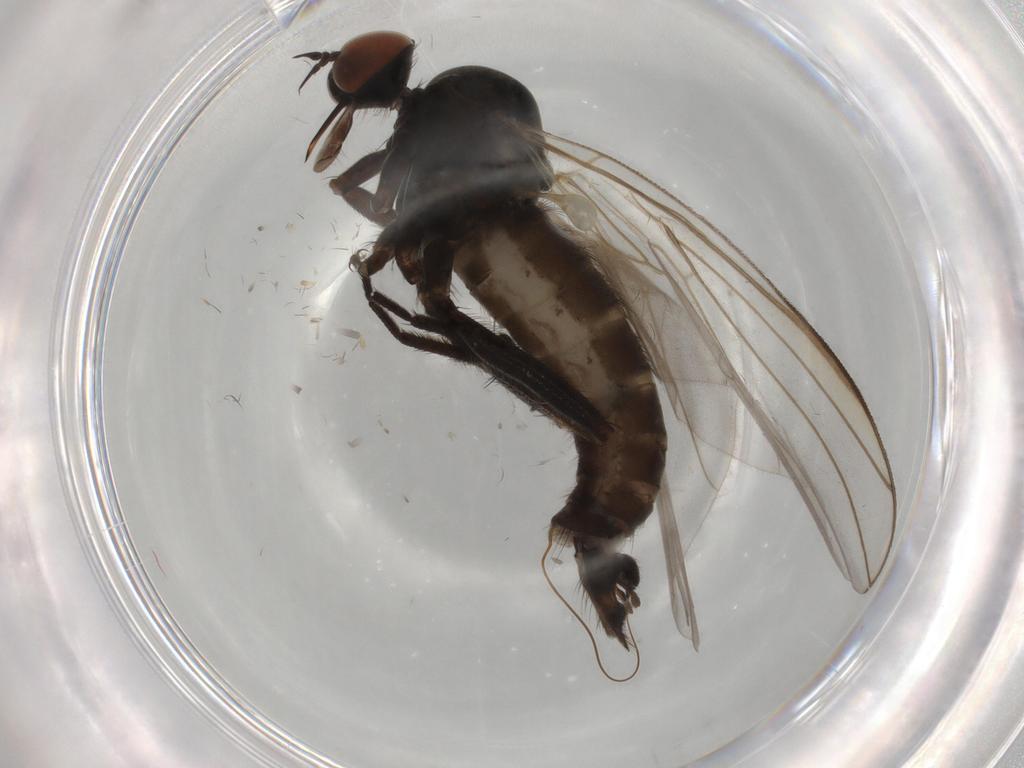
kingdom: Animalia
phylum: Arthropoda
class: Insecta
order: Diptera
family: Empididae
